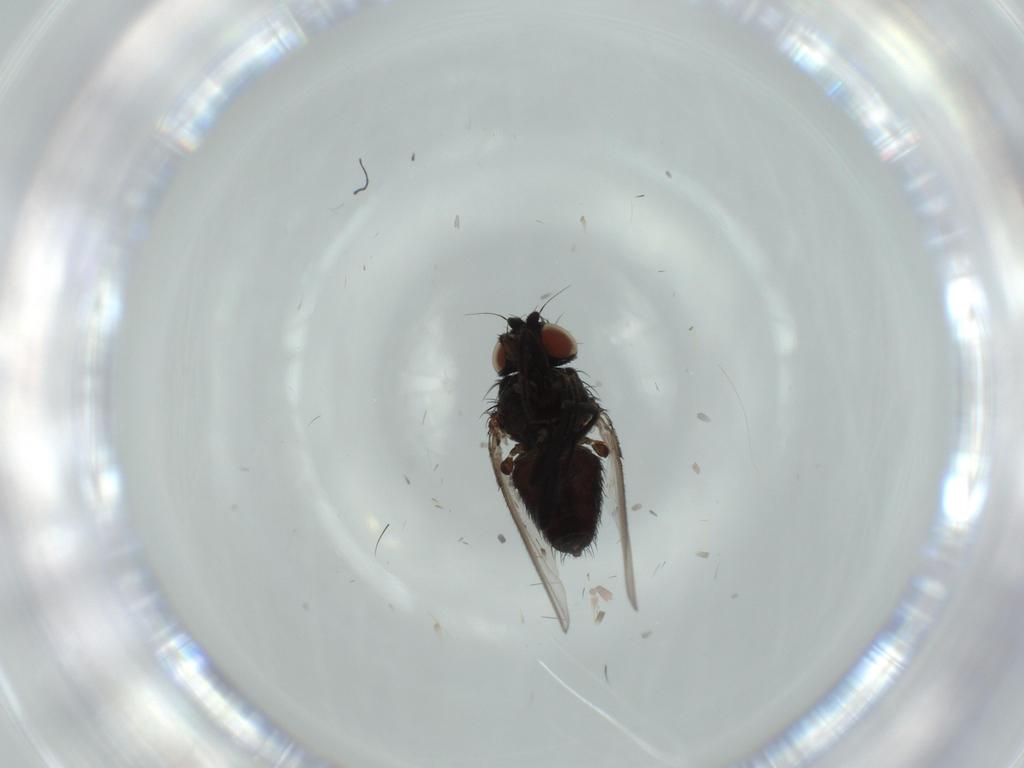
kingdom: Animalia
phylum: Arthropoda
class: Insecta
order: Diptera
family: Milichiidae
